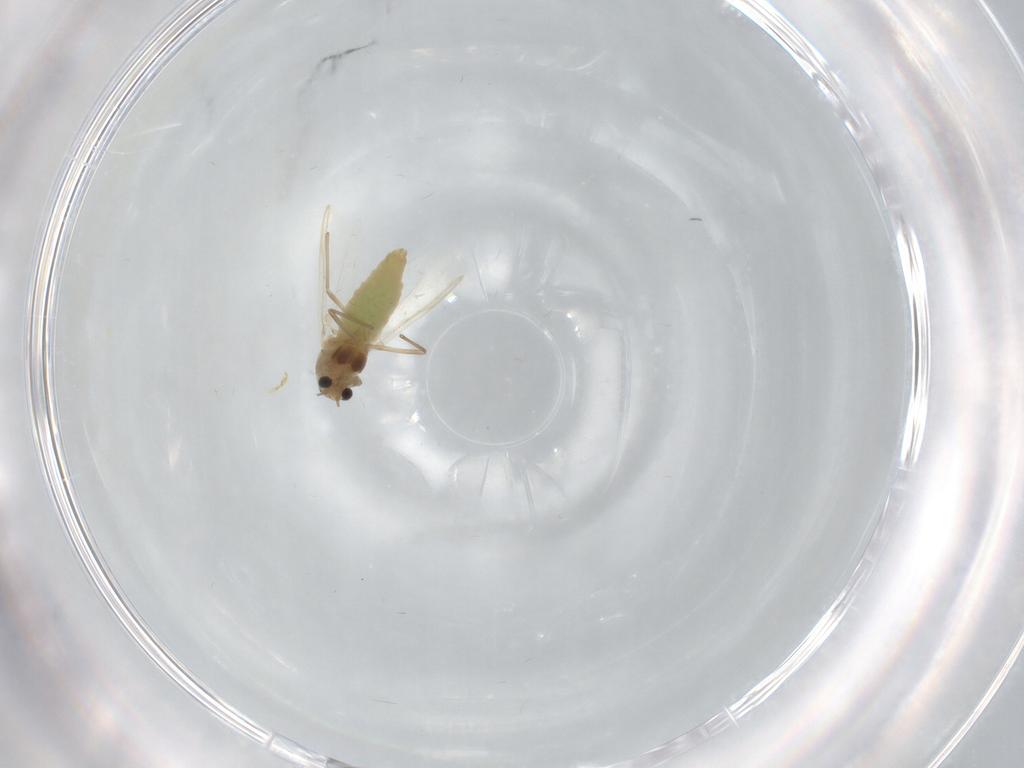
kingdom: Animalia
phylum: Arthropoda
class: Insecta
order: Diptera
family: Chironomidae
